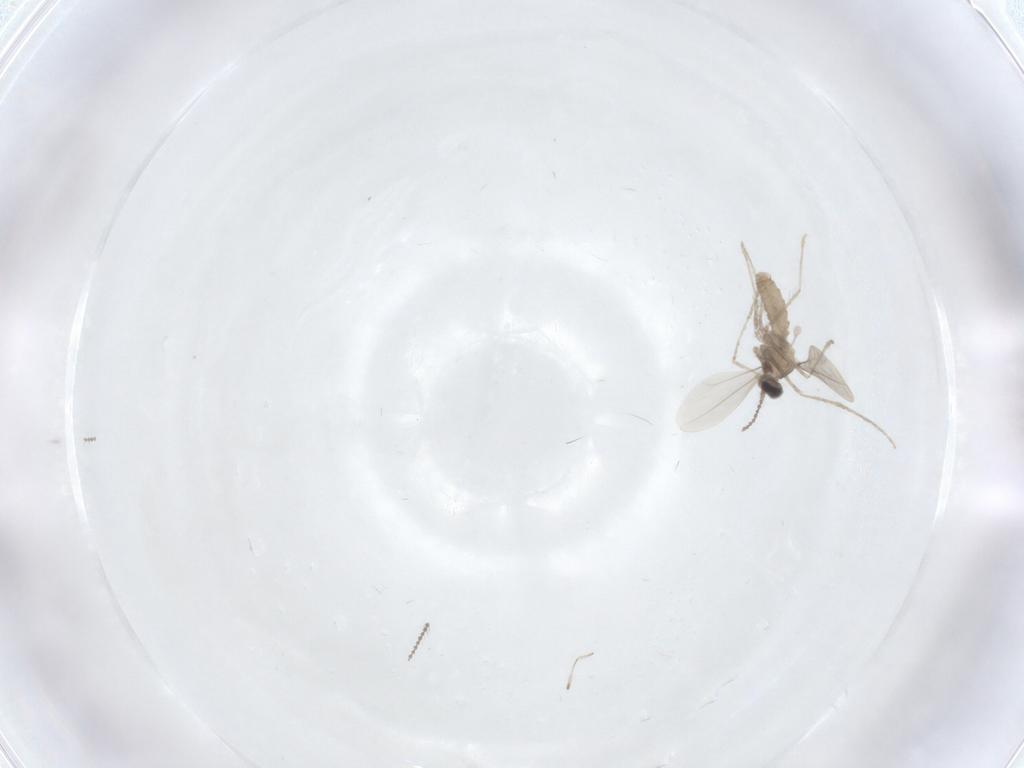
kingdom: Animalia
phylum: Arthropoda
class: Insecta
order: Diptera
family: Cecidomyiidae
